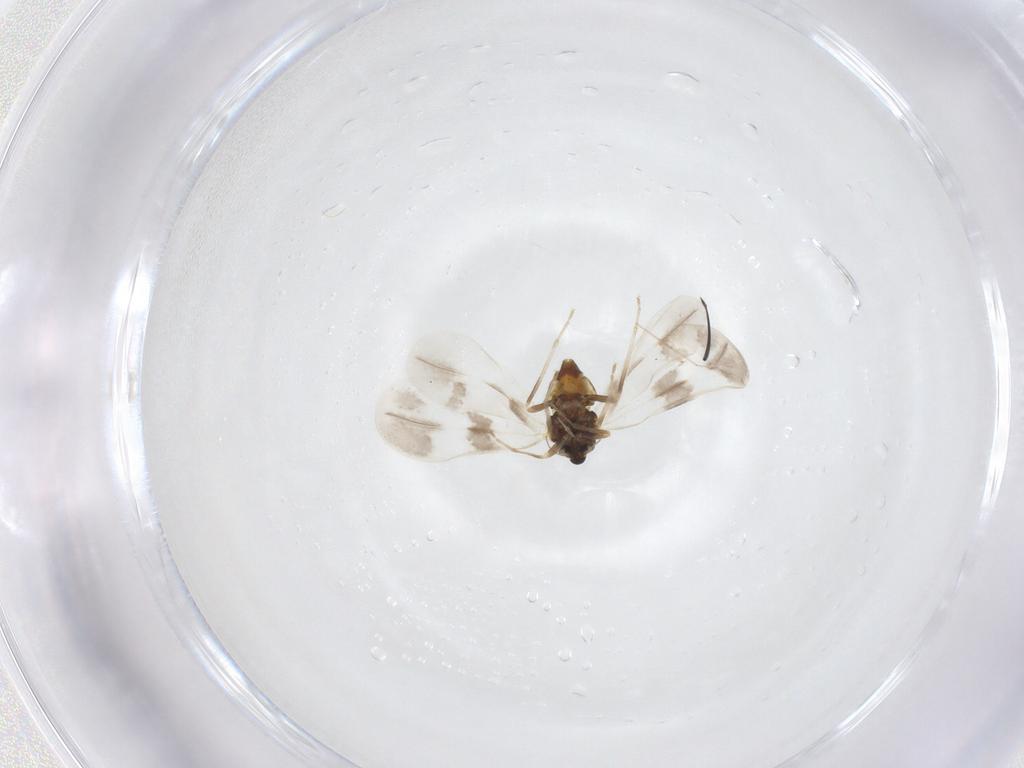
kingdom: Animalia
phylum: Arthropoda
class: Insecta
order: Hemiptera
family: Aleyrodidae
